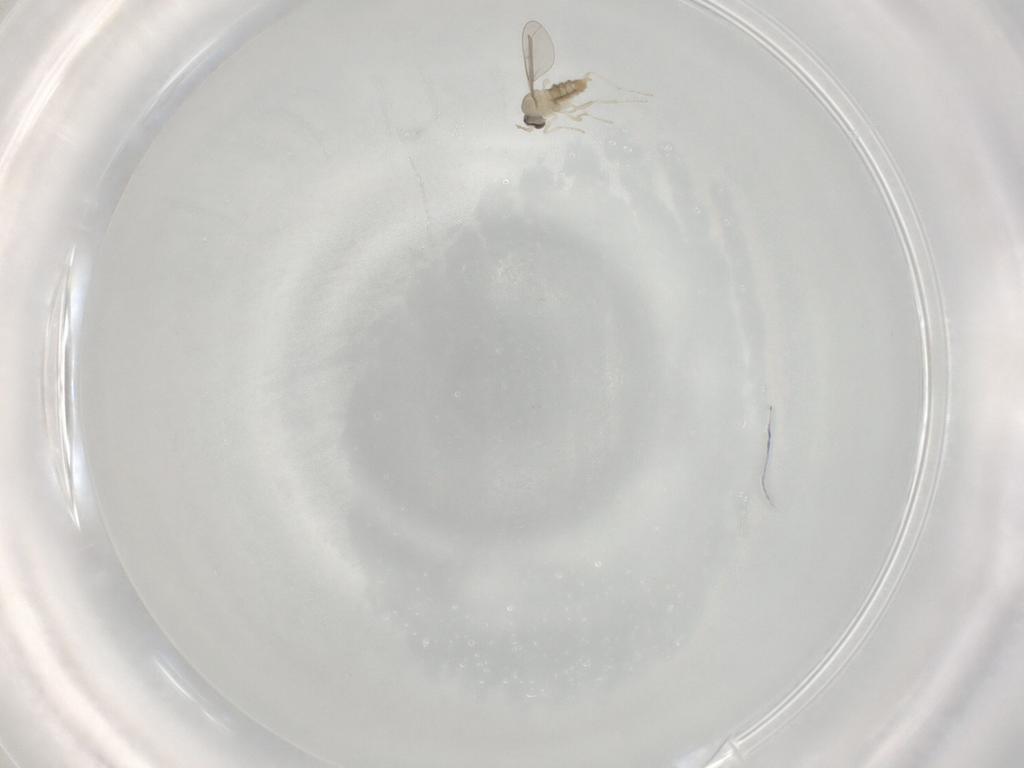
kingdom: Animalia
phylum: Arthropoda
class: Insecta
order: Diptera
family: Cecidomyiidae
